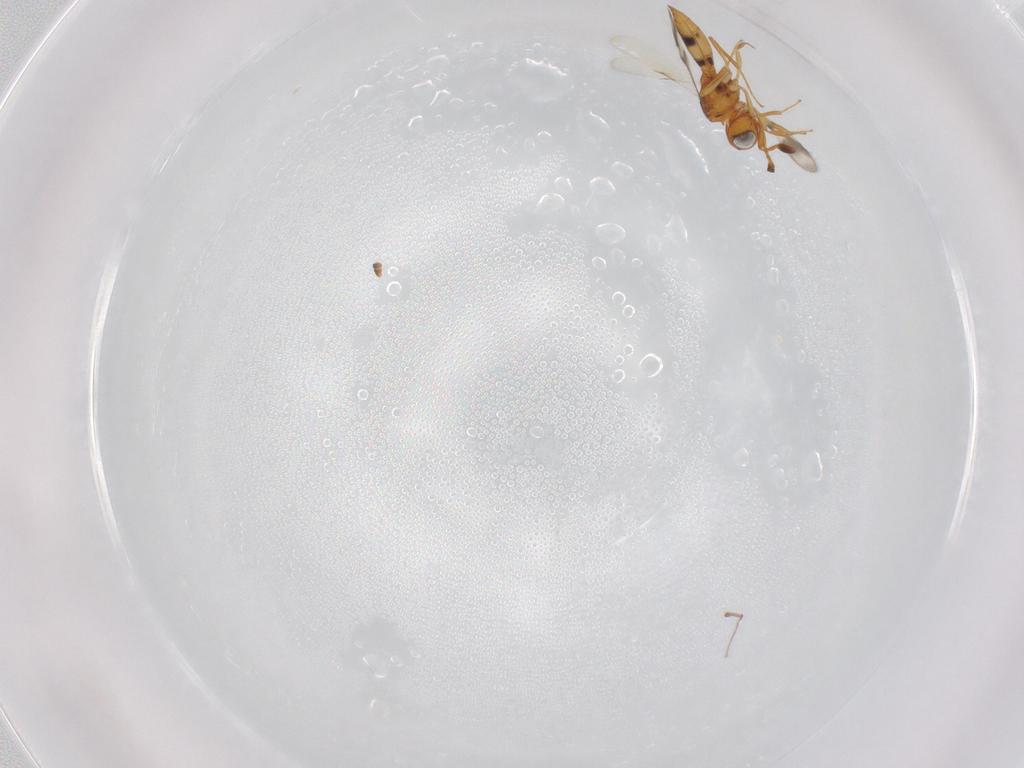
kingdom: Animalia
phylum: Arthropoda
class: Insecta
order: Hymenoptera
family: Scelionidae
